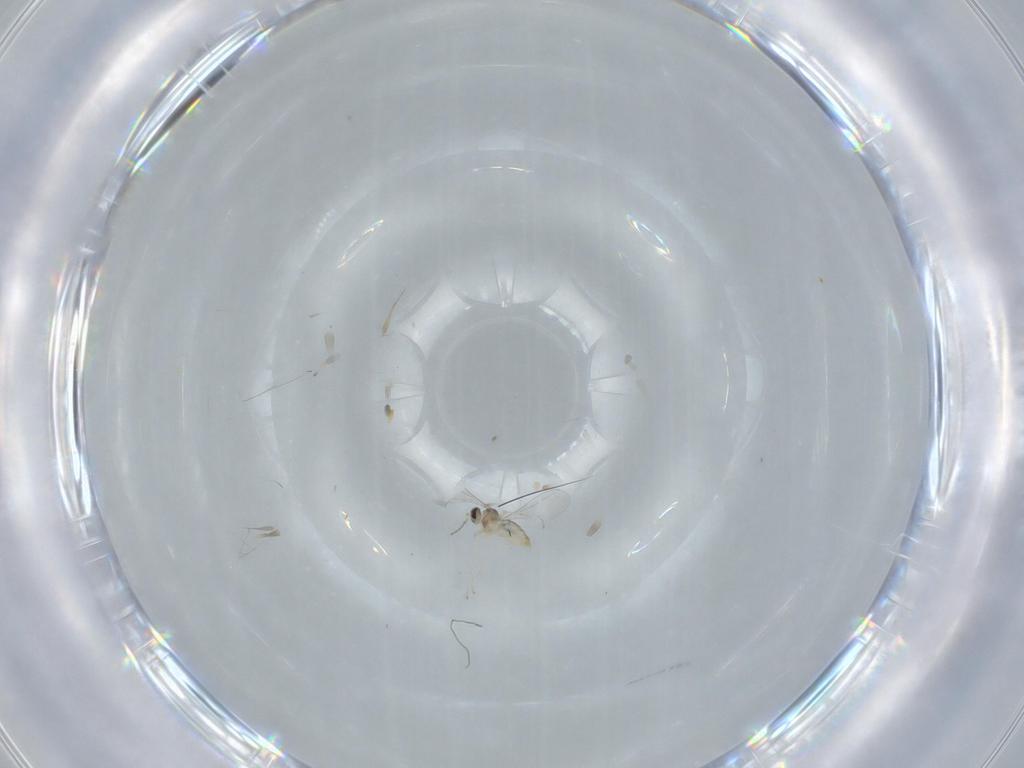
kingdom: Animalia
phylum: Arthropoda
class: Insecta
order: Diptera
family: Cecidomyiidae
